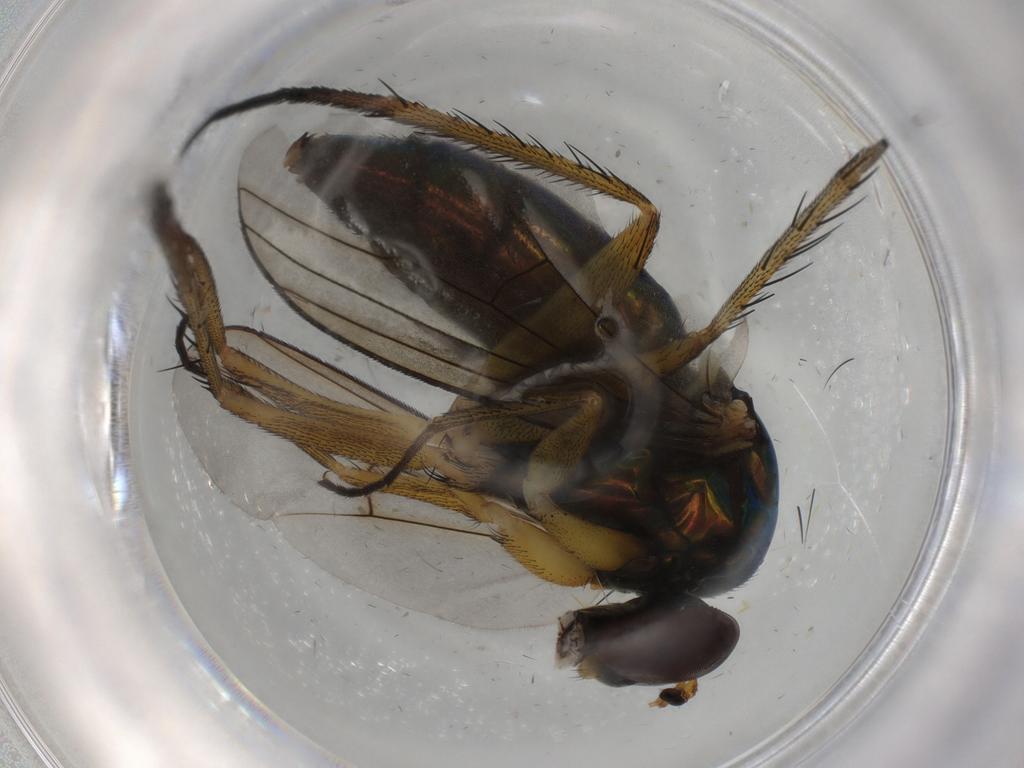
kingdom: Animalia
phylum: Arthropoda
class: Insecta
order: Diptera
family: Dolichopodidae
